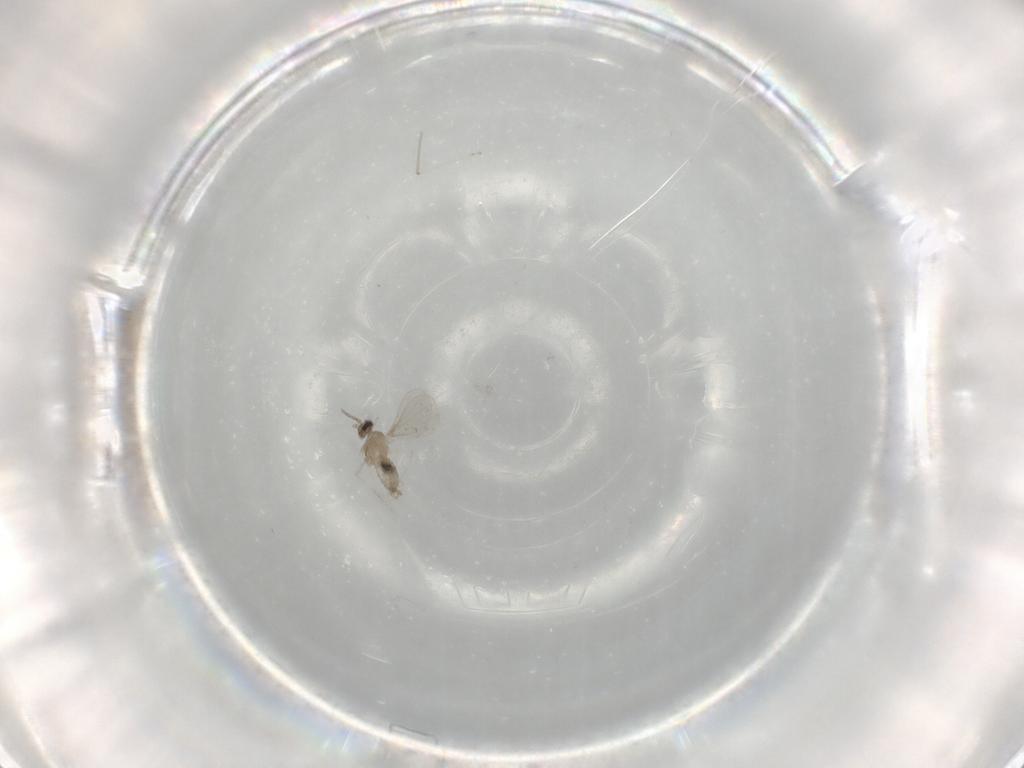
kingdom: Animalia
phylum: Arthropoda
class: Insecta
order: Diptera
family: Cecidomyiidae
